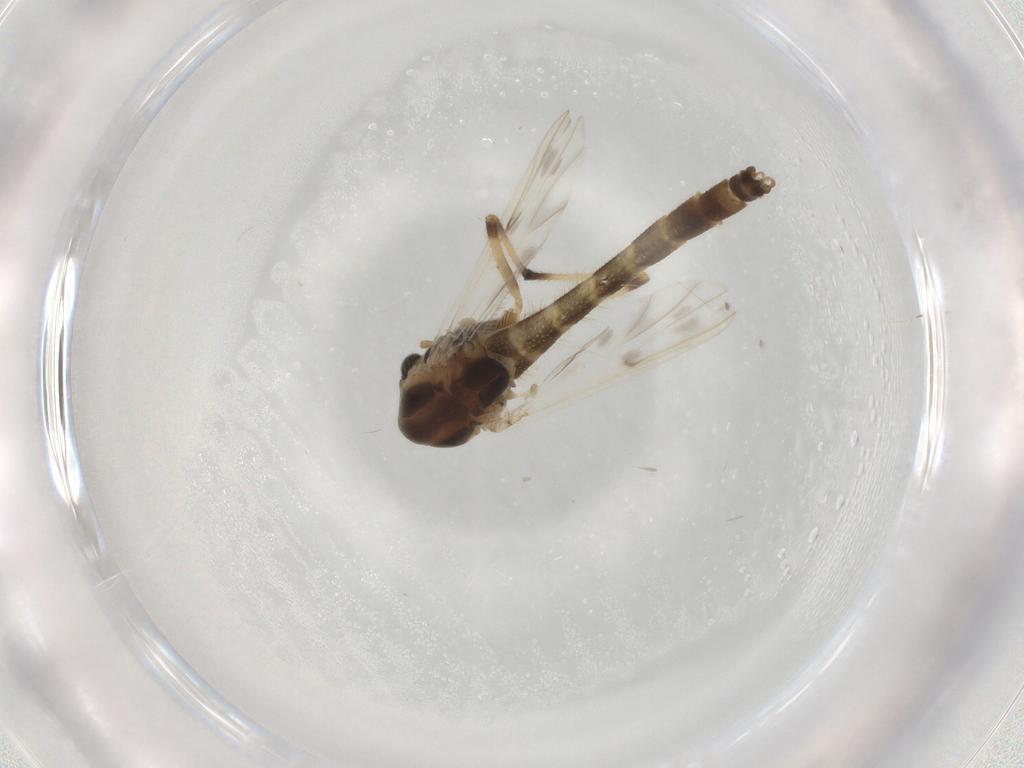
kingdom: Animalia
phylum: Arthropoda
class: Insecta
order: Diptera
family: Chironomidae
